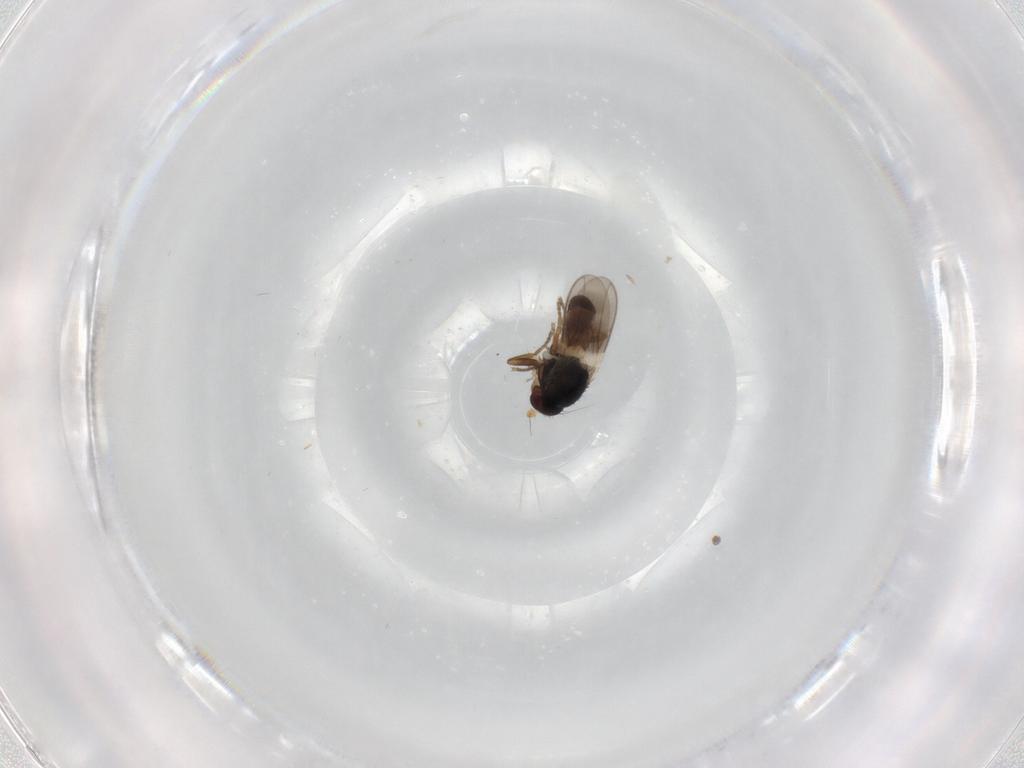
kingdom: Animalia
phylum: Arthropoda
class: Insecta
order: Diptera
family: Sphaeroceridae
